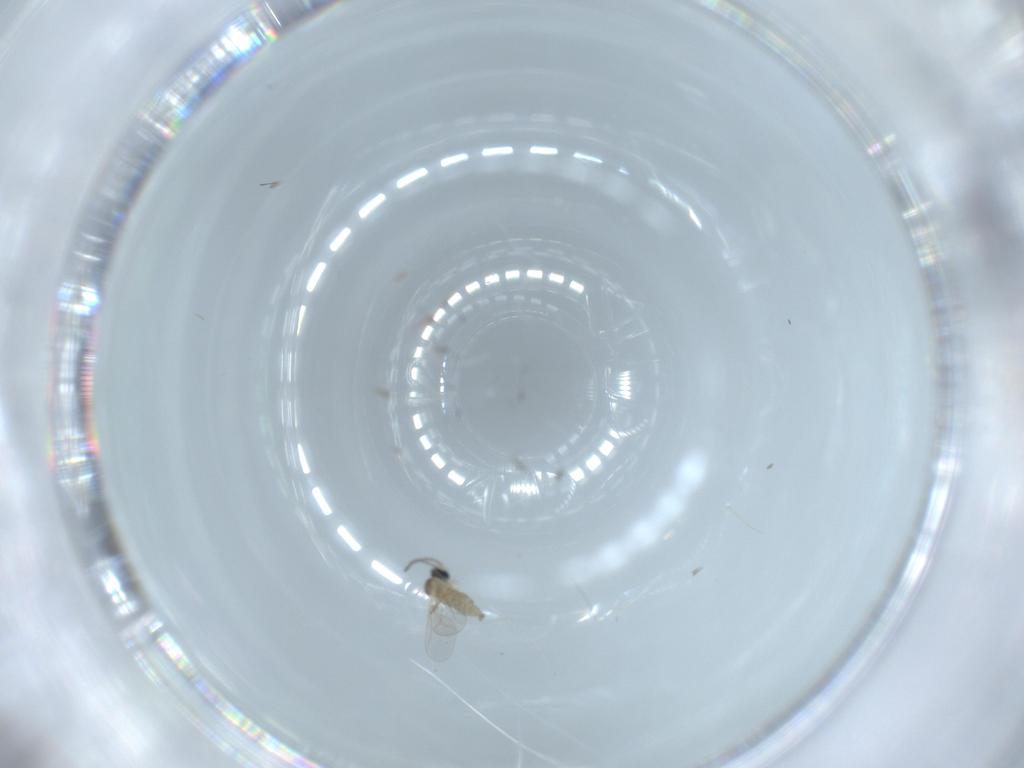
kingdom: Animalia
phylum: Arthropoda
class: Insecta
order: Diptera
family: Cecidomyiidae
